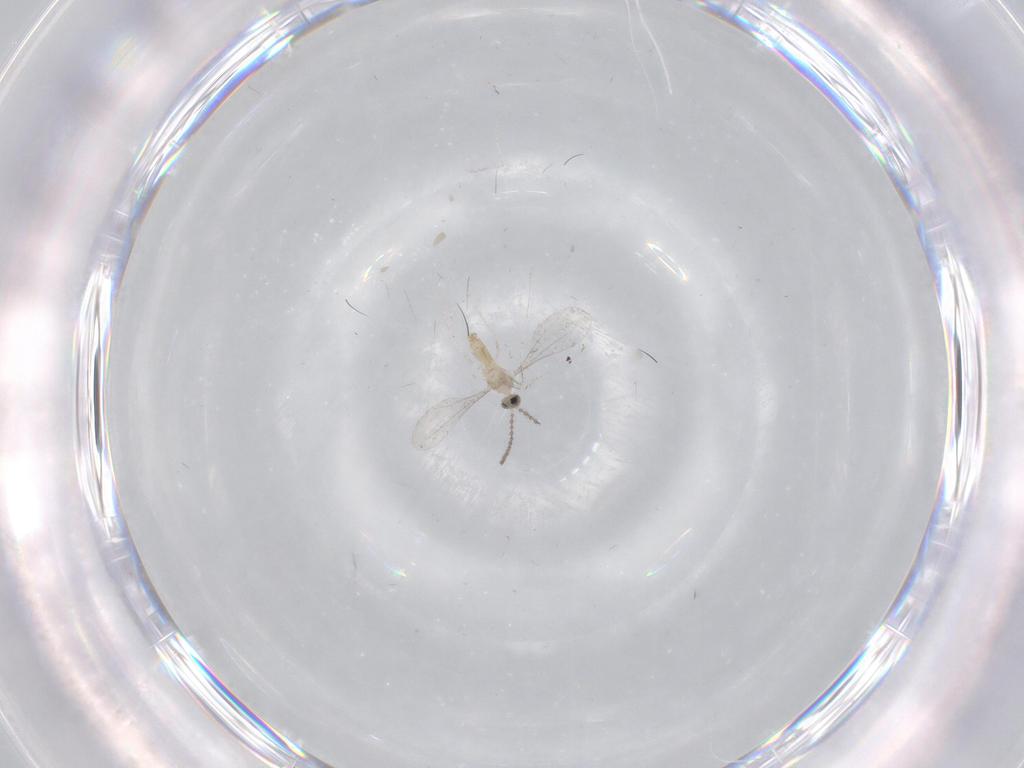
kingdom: Animalia
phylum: Arthropoda
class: Insecta
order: Diptera
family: Cecidomyiidae
